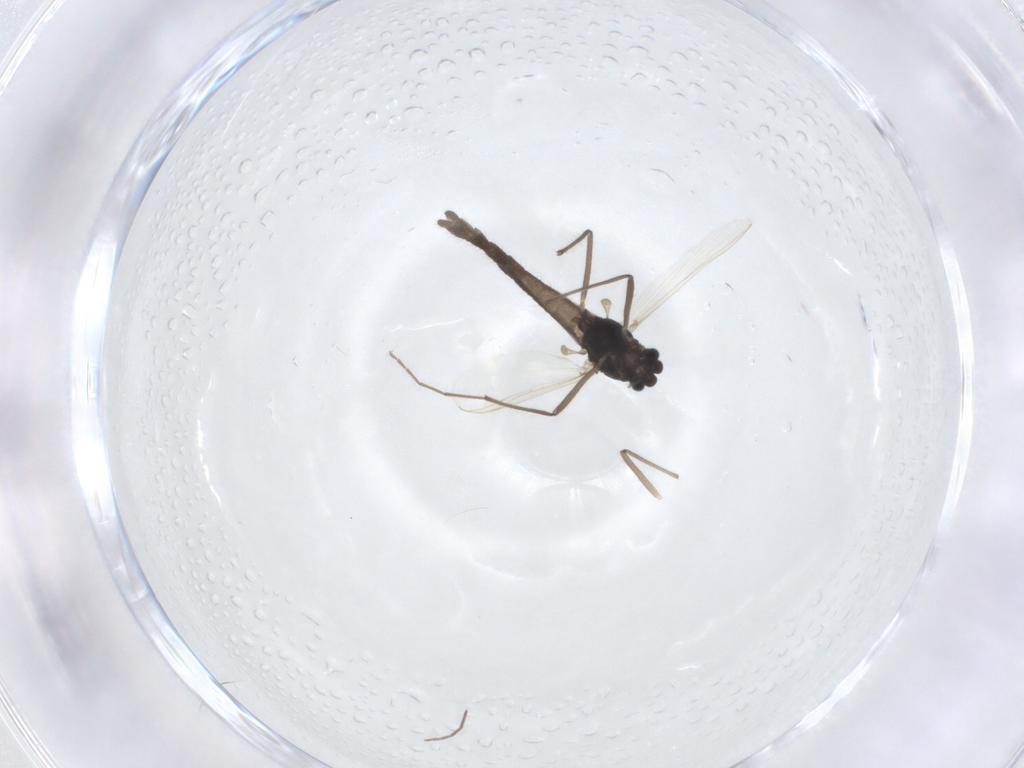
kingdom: Animalia
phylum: Arthropoda
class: Insecta
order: Diptera
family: Chironomidae
